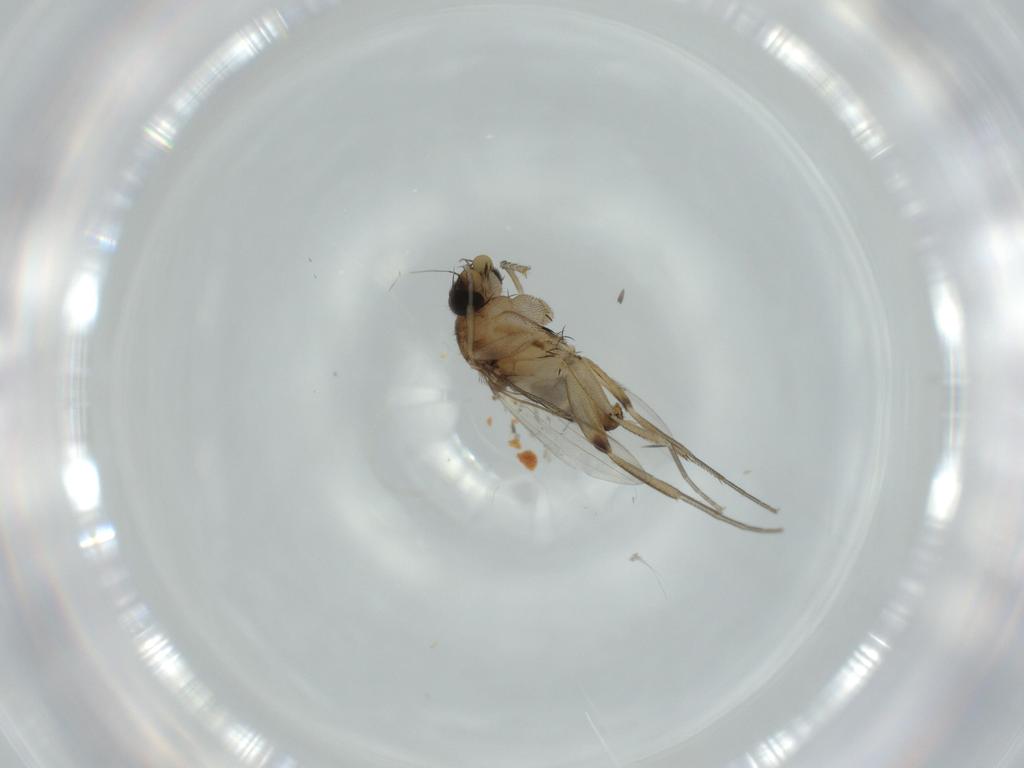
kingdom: Animalia
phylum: Arthropoda
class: Insecta
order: Diptera
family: Phoridae
